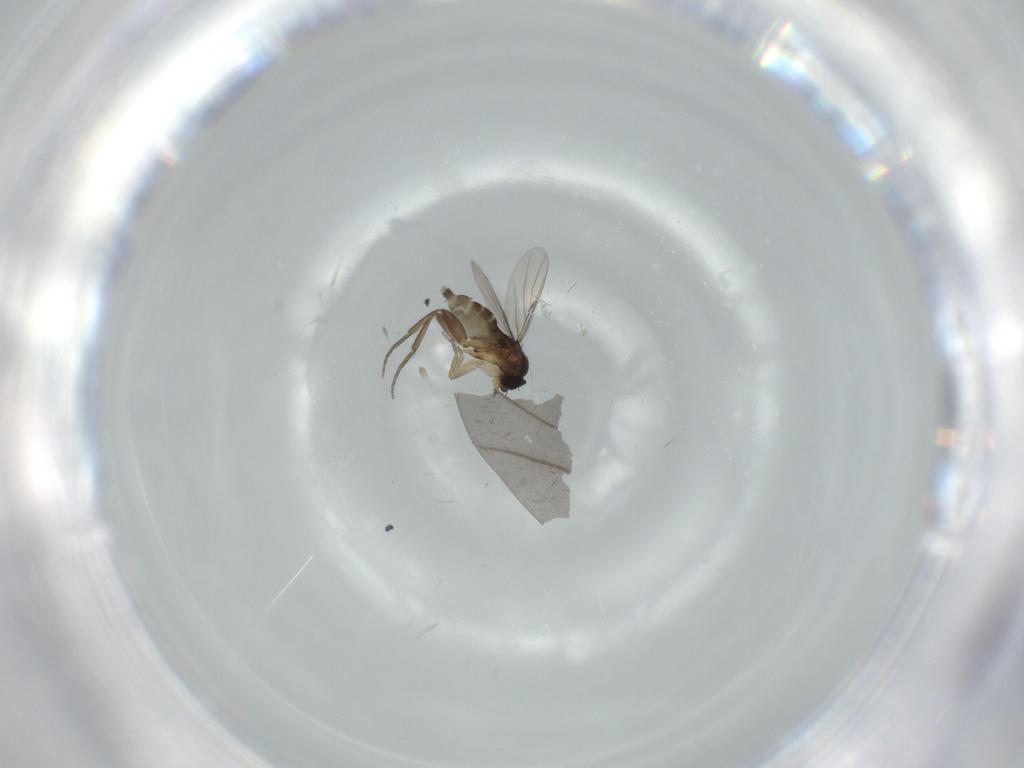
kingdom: Animalia
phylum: Arthropoda
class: Insecta
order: Diptera
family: Phoridae
